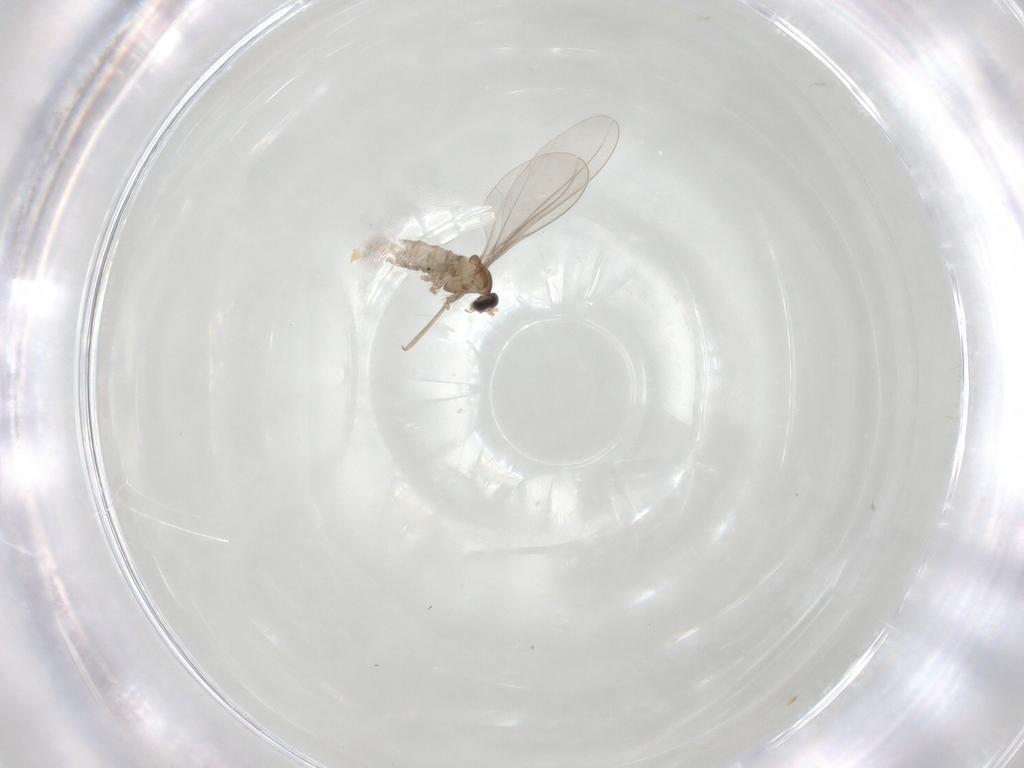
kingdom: Animalia
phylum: Arthropoda
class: Insecta
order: Diptera
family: Cecidomyiidae
